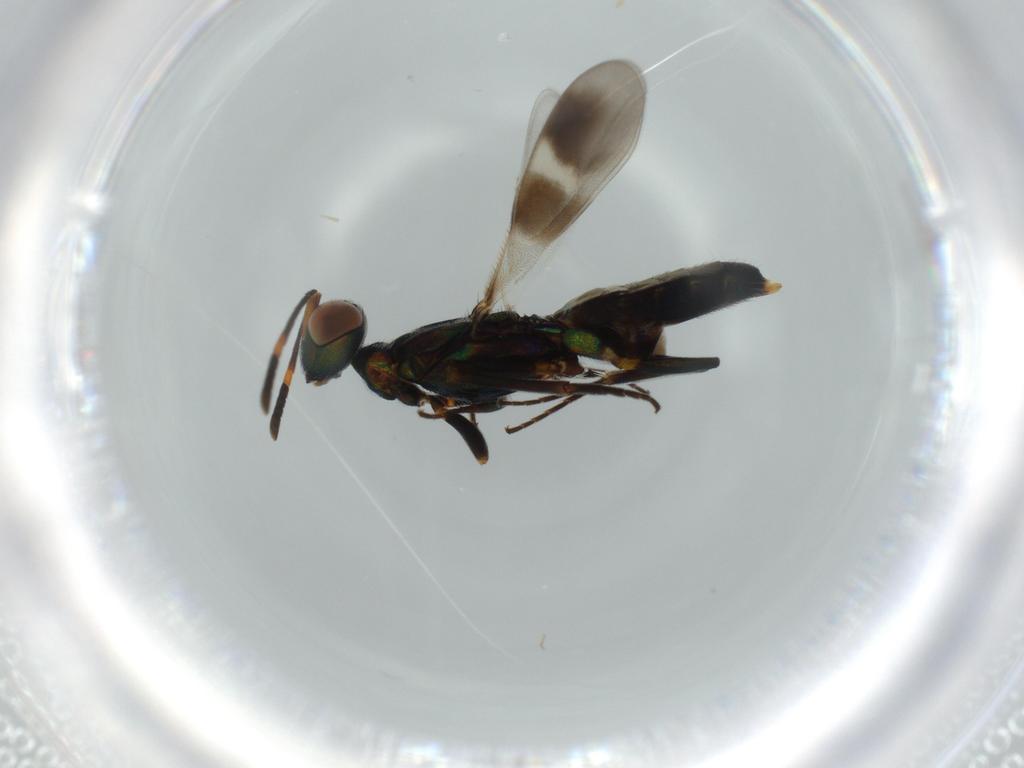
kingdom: Animalia
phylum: Arthropoda
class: Insecta
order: Hymenoptera
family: Eupelmidae
